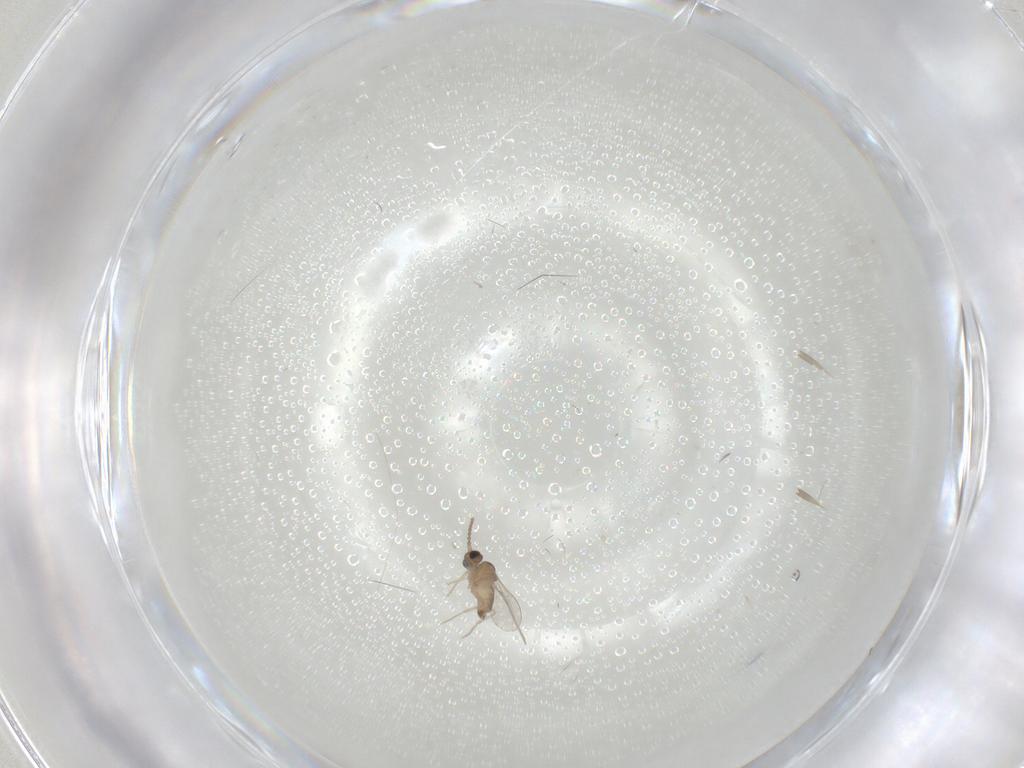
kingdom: Animalia
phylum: Arthropoda
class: Insecta
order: Diptera
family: Cecidomyiidae
